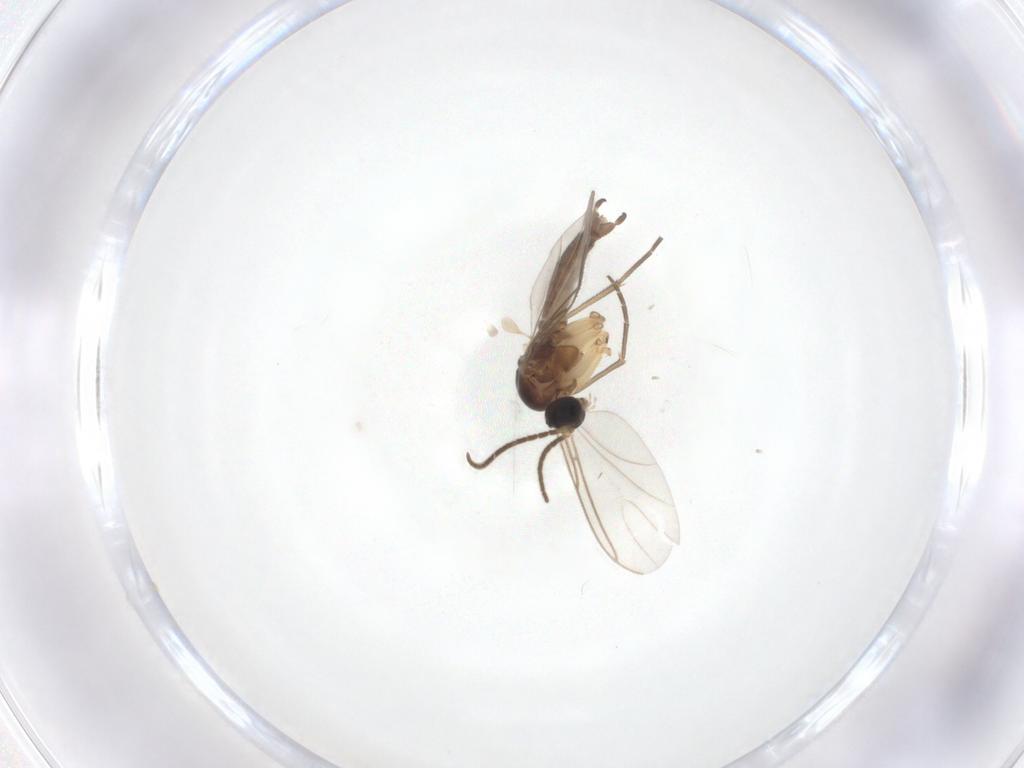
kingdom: Animalia
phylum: Arthropoda
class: Insecta
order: Diptera
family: Sciaridae
